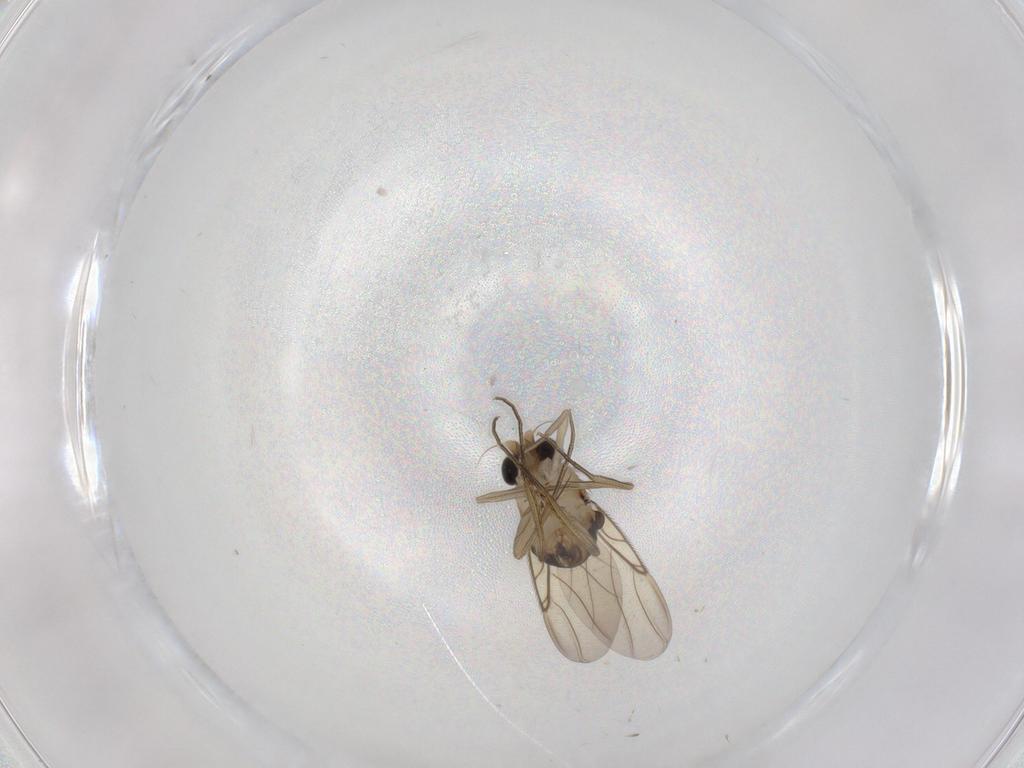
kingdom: Animalia
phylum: Arthropoda
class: Insecta
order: Diptera
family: Phoridae
